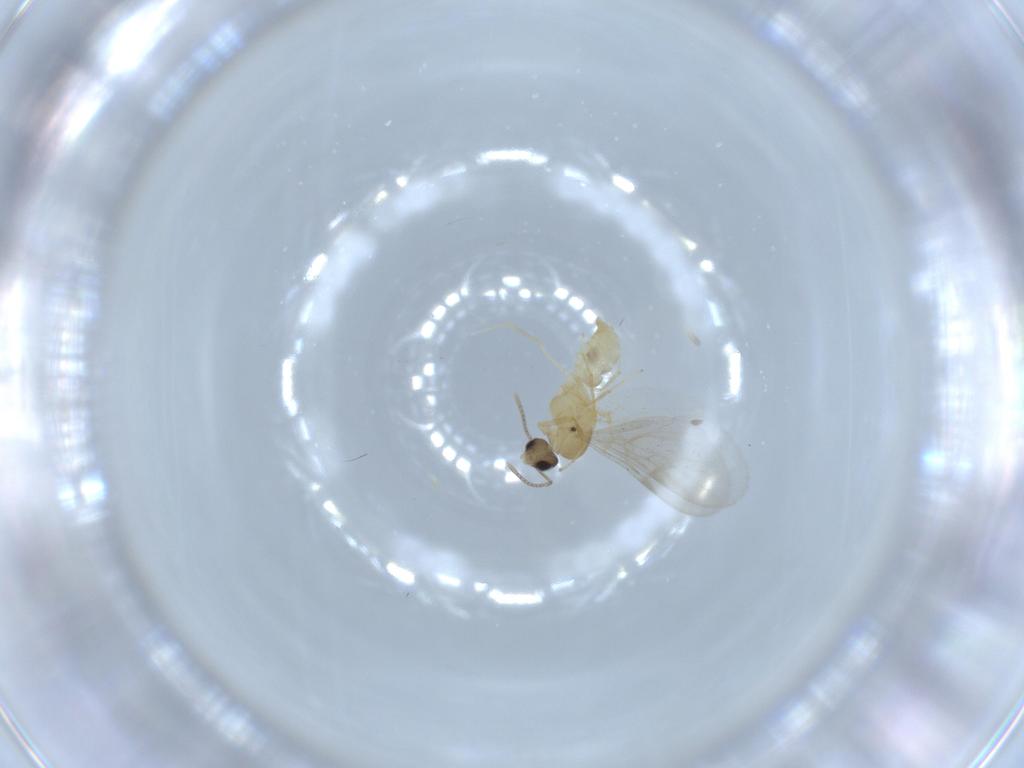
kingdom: Animalia
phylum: Arthropoda
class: Insecta
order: Hymenoptera
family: Formicidae
